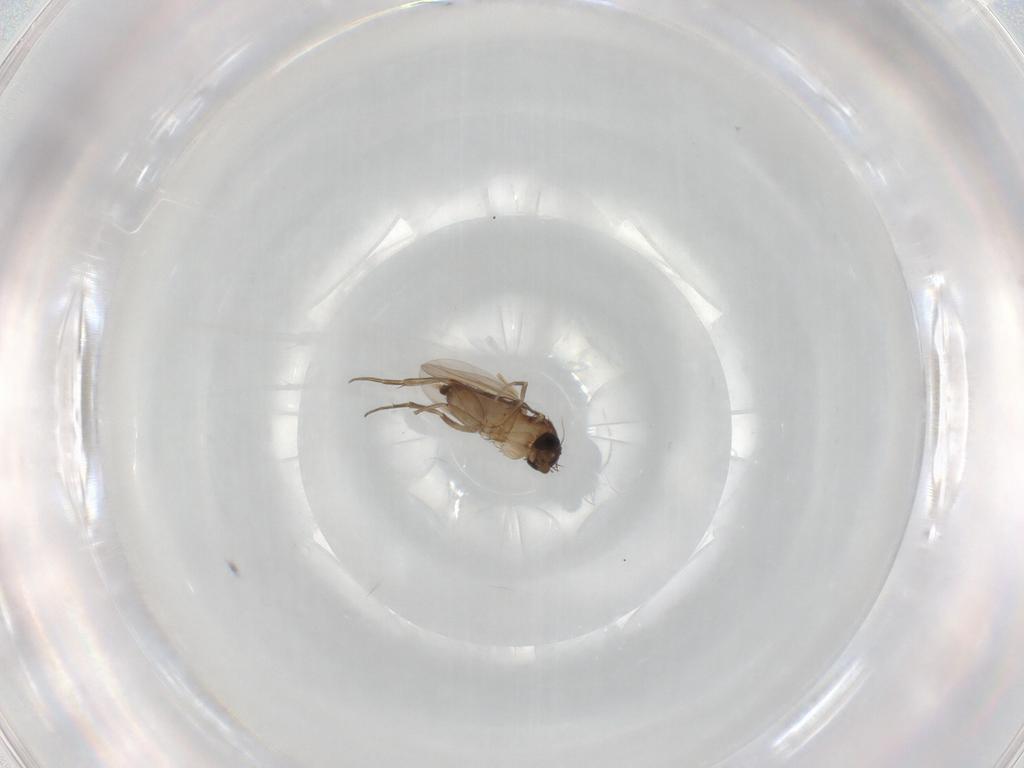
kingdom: Animalia
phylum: Arthropoda
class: Insecta
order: Diptera
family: Phoridae
